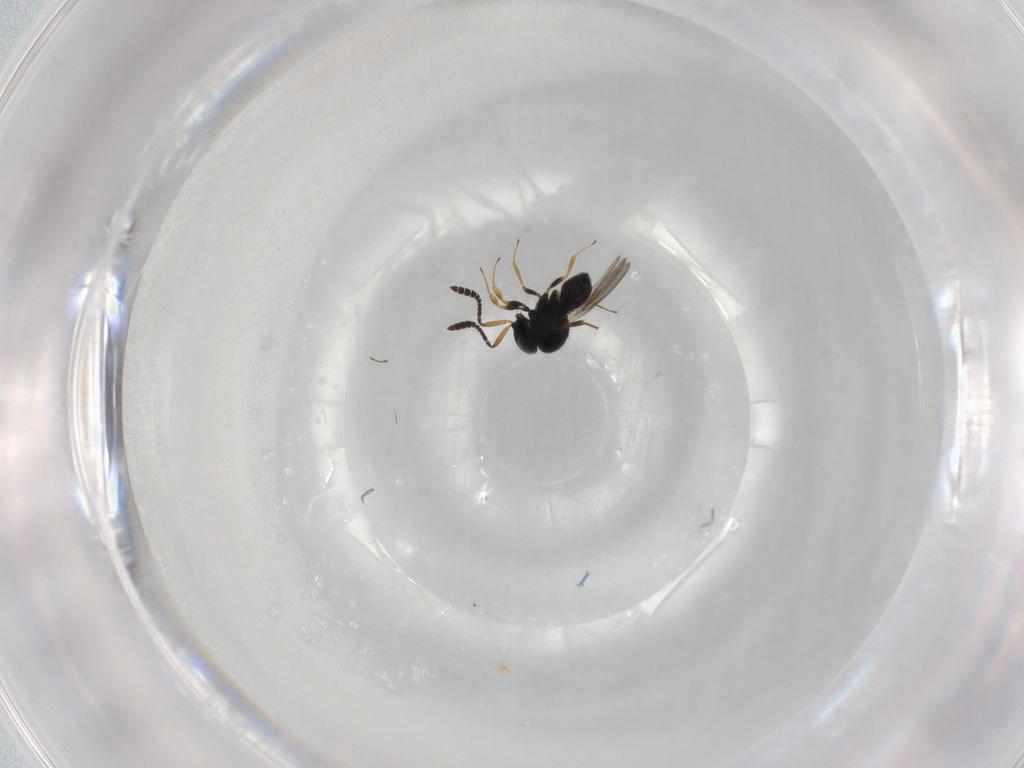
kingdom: Animalia
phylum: Arthropoda
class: Insecta
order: Hymenoptera
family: Scelionidae
